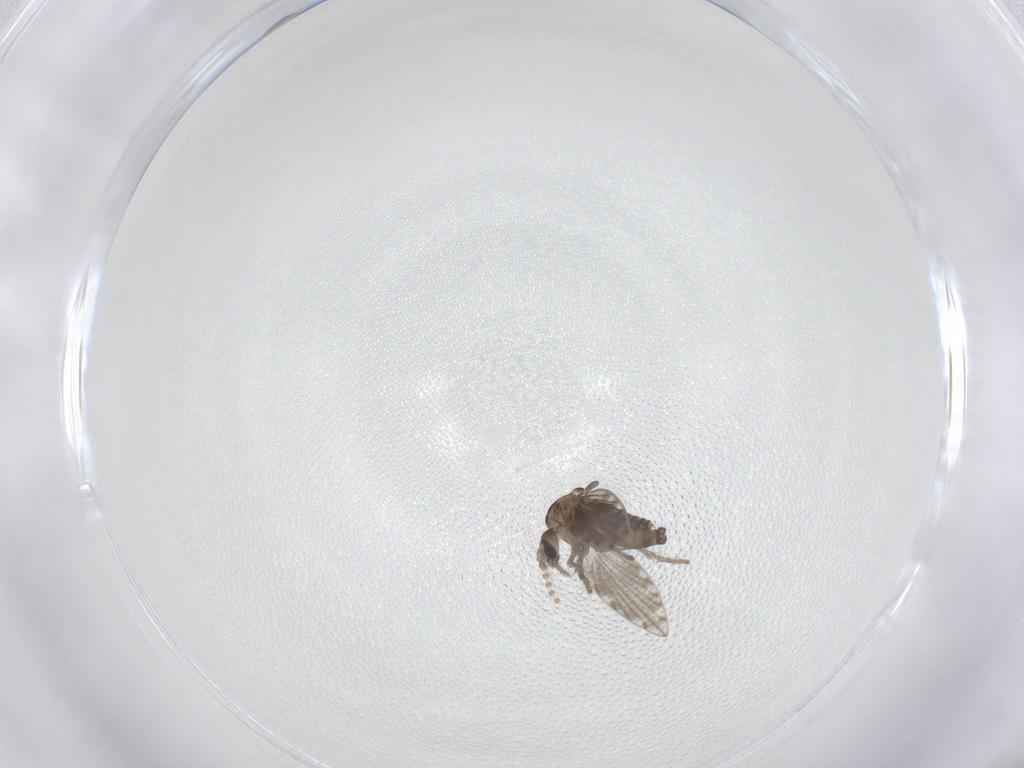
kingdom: Animalia
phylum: Arthropoda
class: Insecta
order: Diptera
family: Psychodidae
